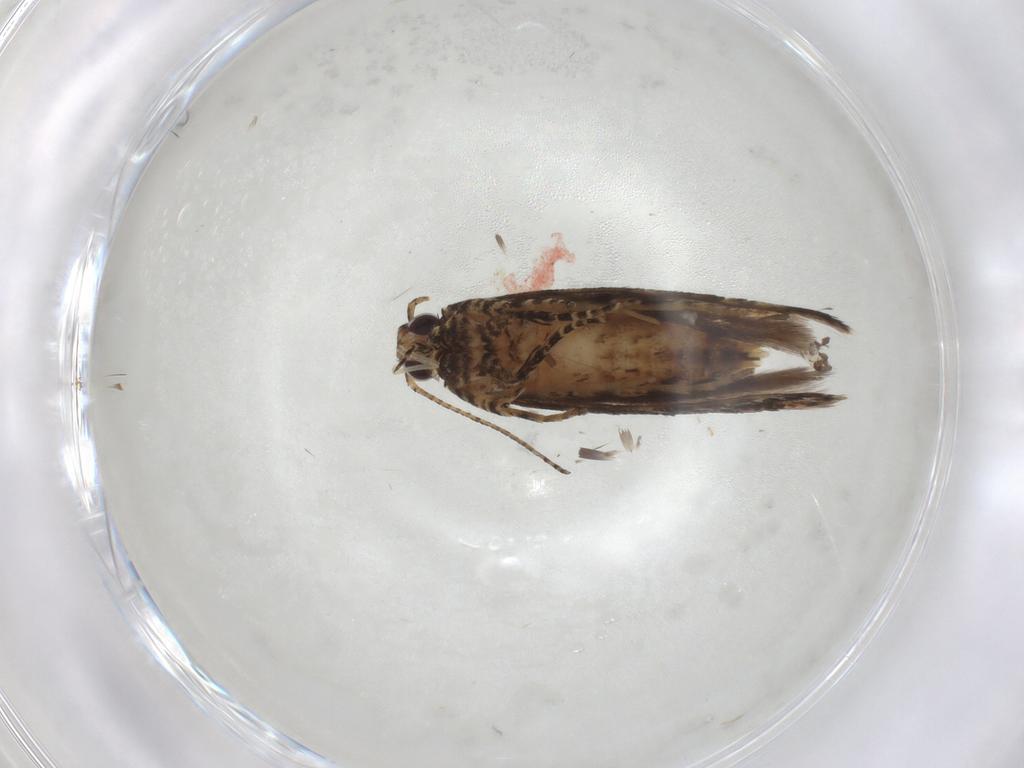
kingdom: Animalia
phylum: Arthropoda
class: Insecta
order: Lepidoptera
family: Gelechiidae
